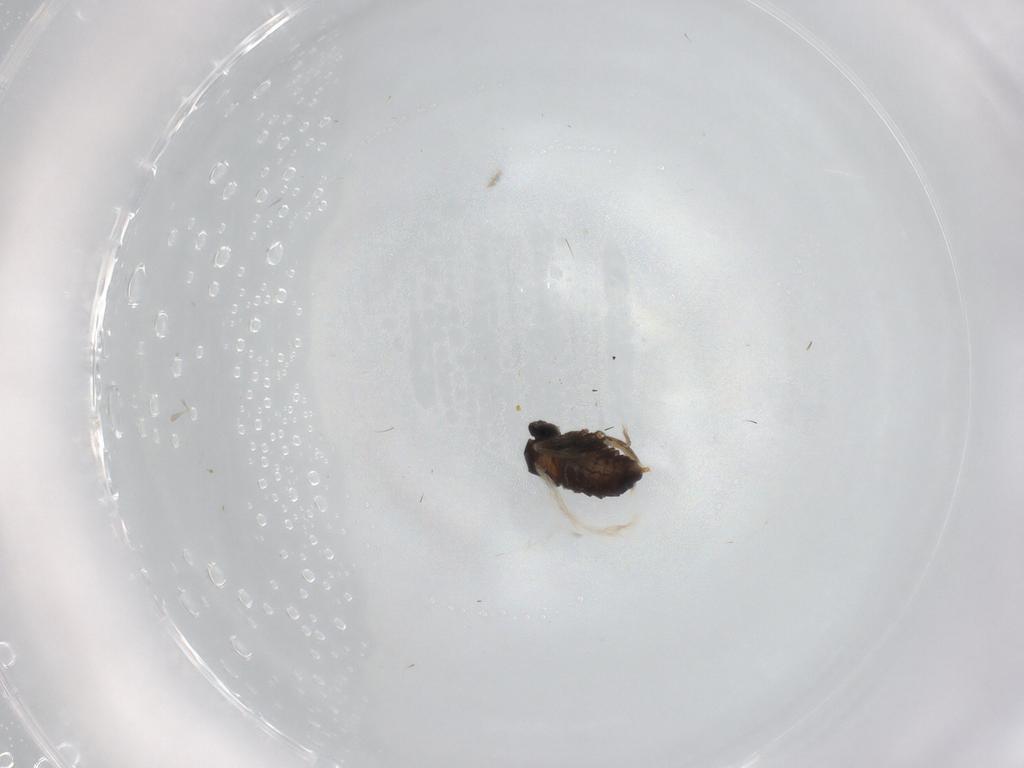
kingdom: Animalia
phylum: Arthropoda
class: Insecta
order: Diptera
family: Cecidomyiidae
